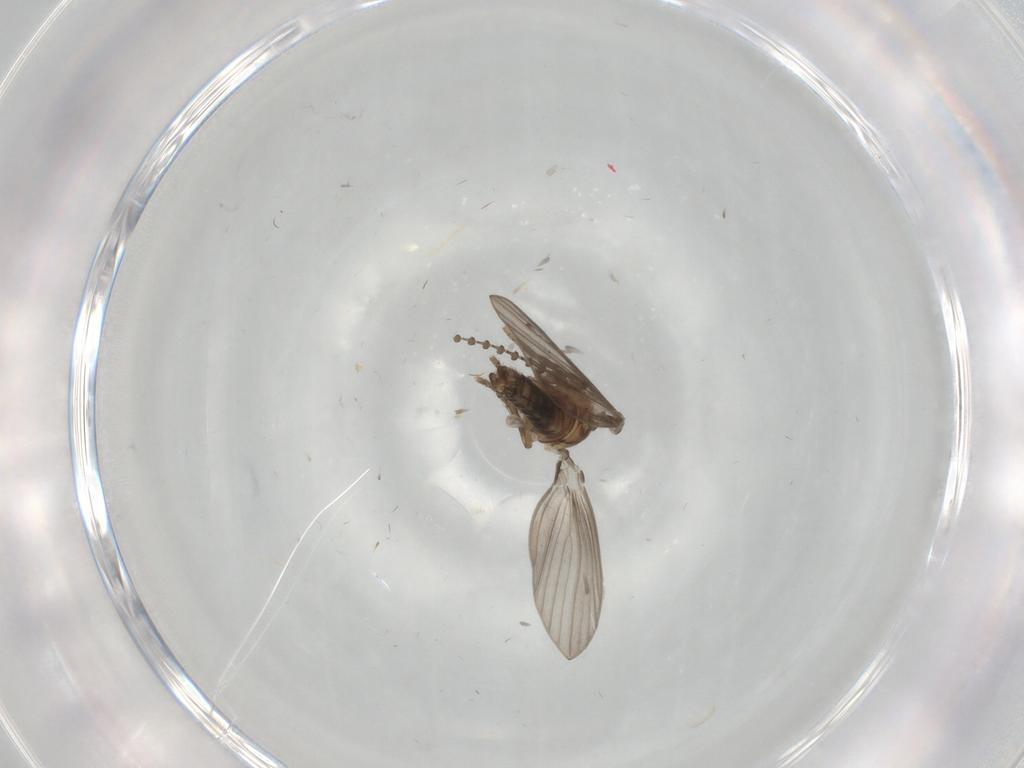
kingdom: Animalia
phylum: Arthropoda
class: Insecta
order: Diptera
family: Psychodidae
